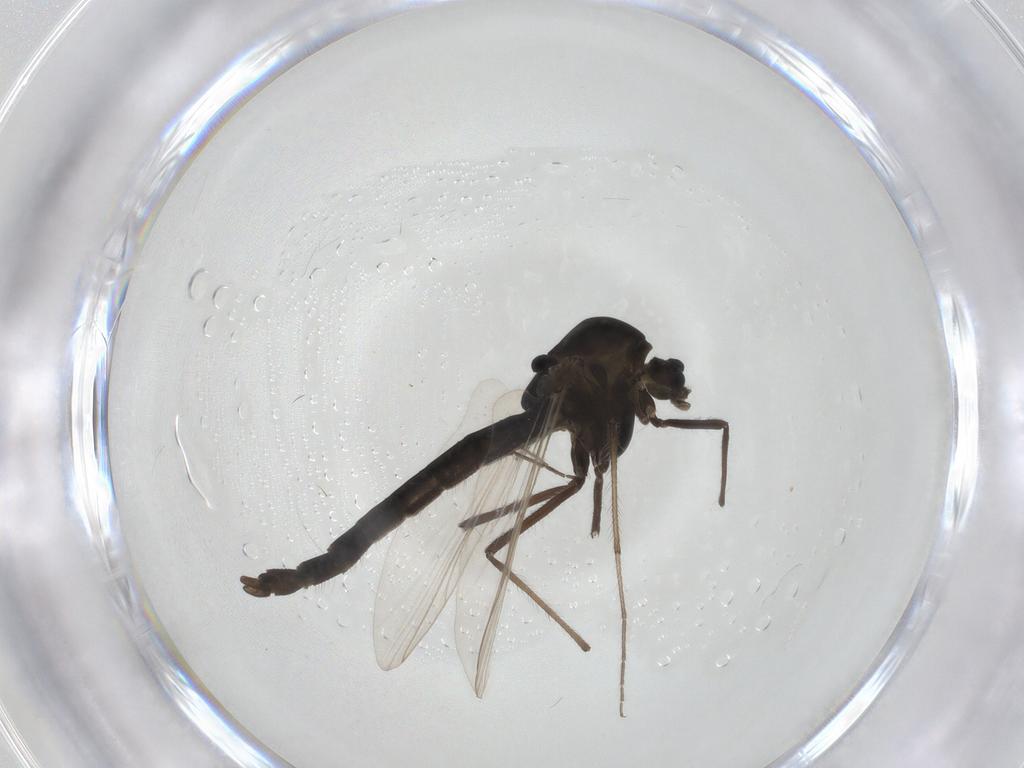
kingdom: Animalia
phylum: Arthropoda
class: Insecta
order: Diptera
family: Chironomidae
